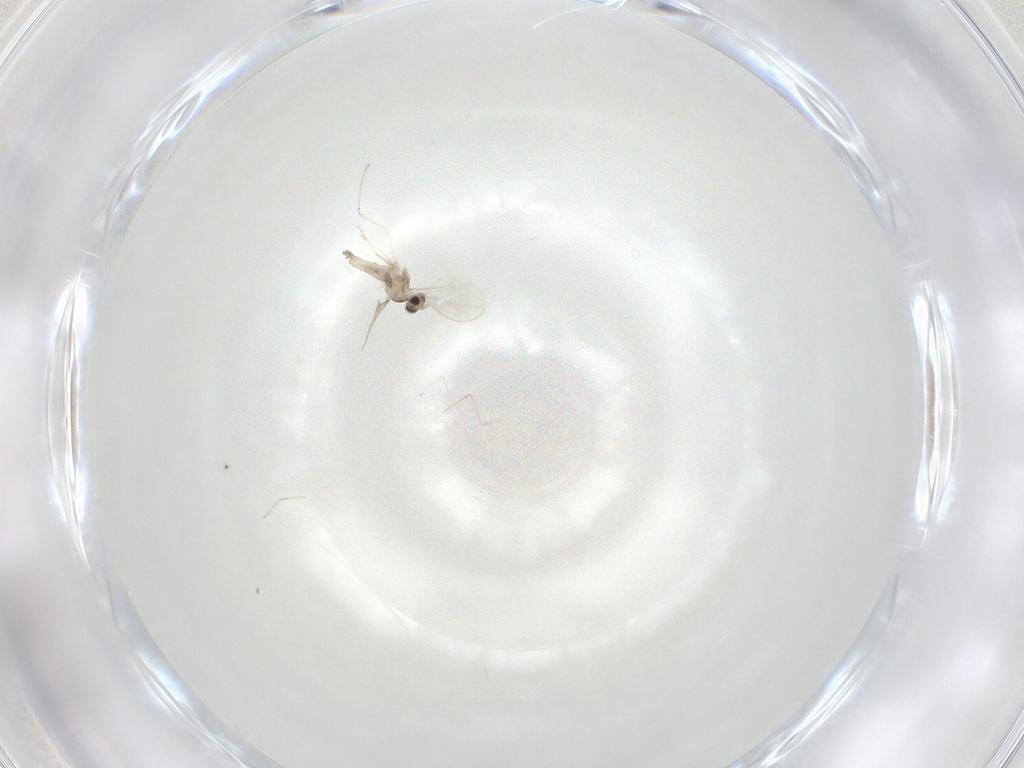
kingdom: Animalia
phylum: Arthropoda
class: Insecta
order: Diptera
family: Cecidomyiidae
